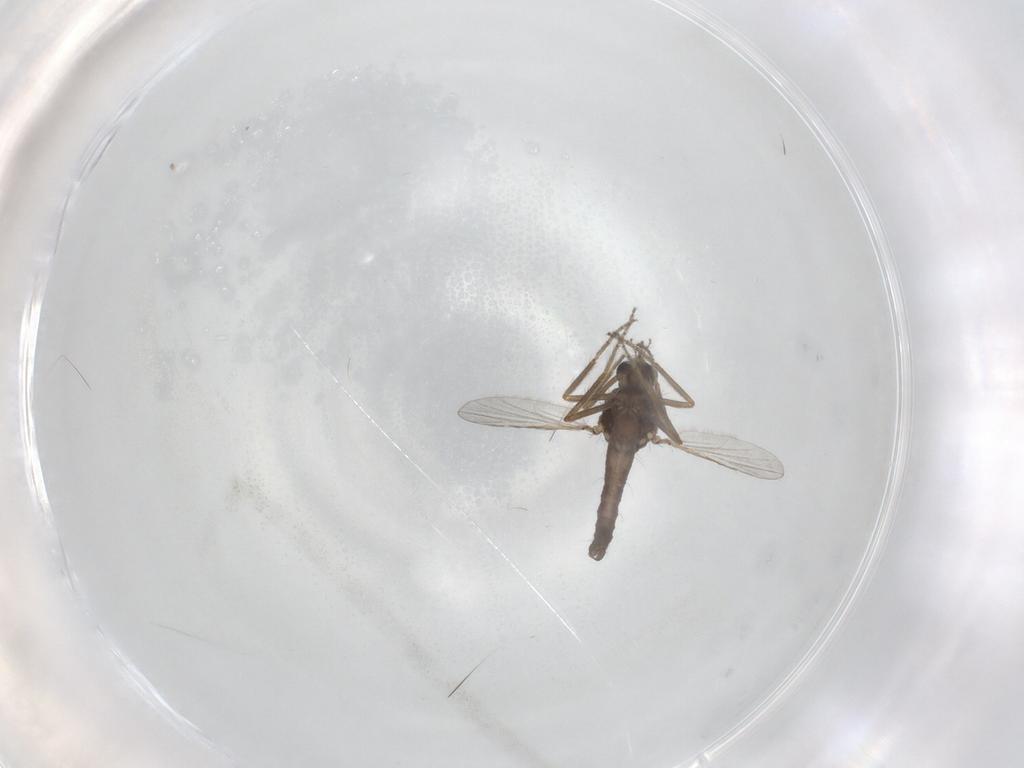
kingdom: Animalia
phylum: Arthropoda
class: Insecta
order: Diptera
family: Ceratopogonidae
